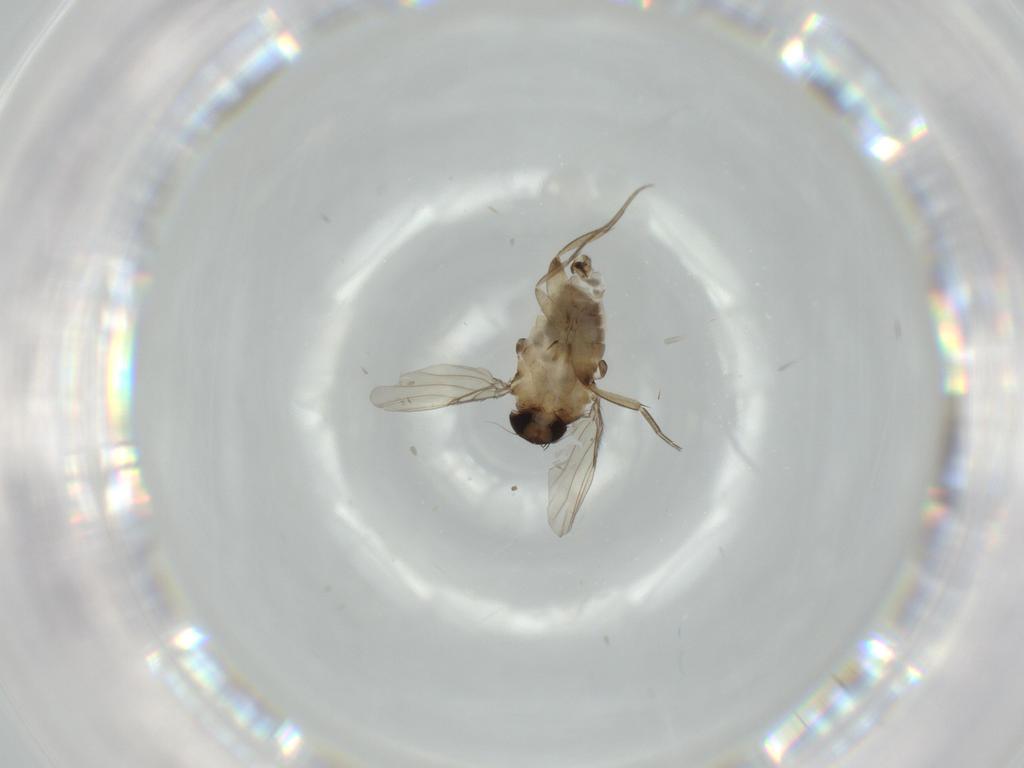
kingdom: Animalia
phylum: Arthropoda
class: Insecta
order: Diptera
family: Phoridae
